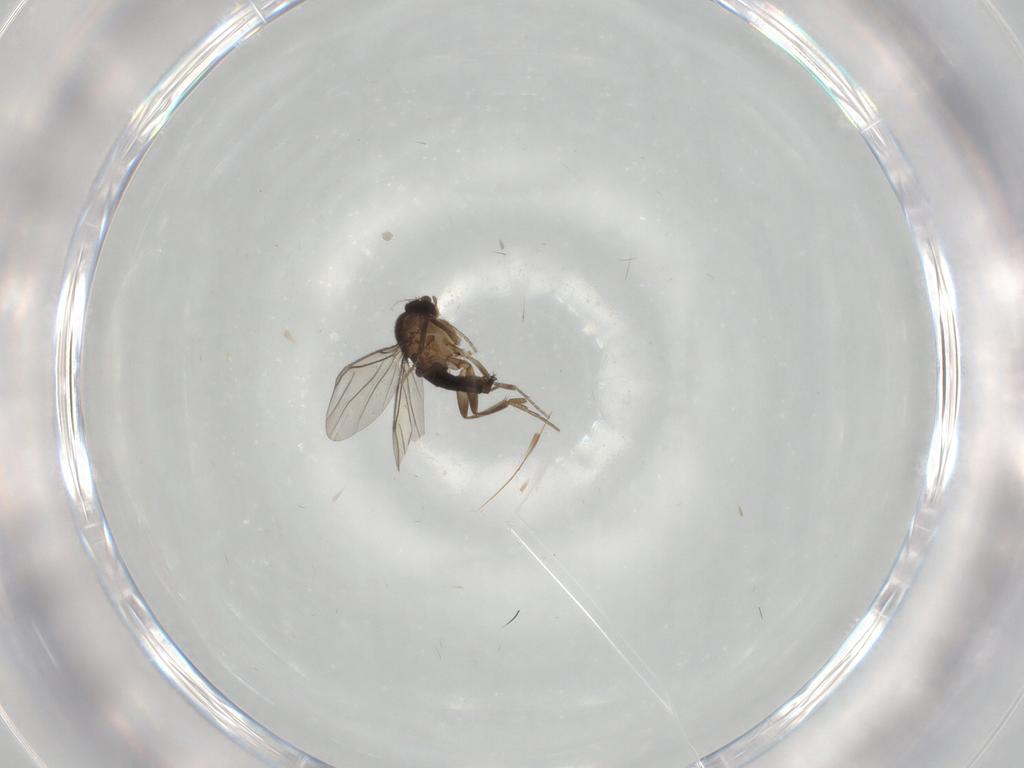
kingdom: Animalia
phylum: Arthropoda
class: Insecta
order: Diptera
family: Phoridae
